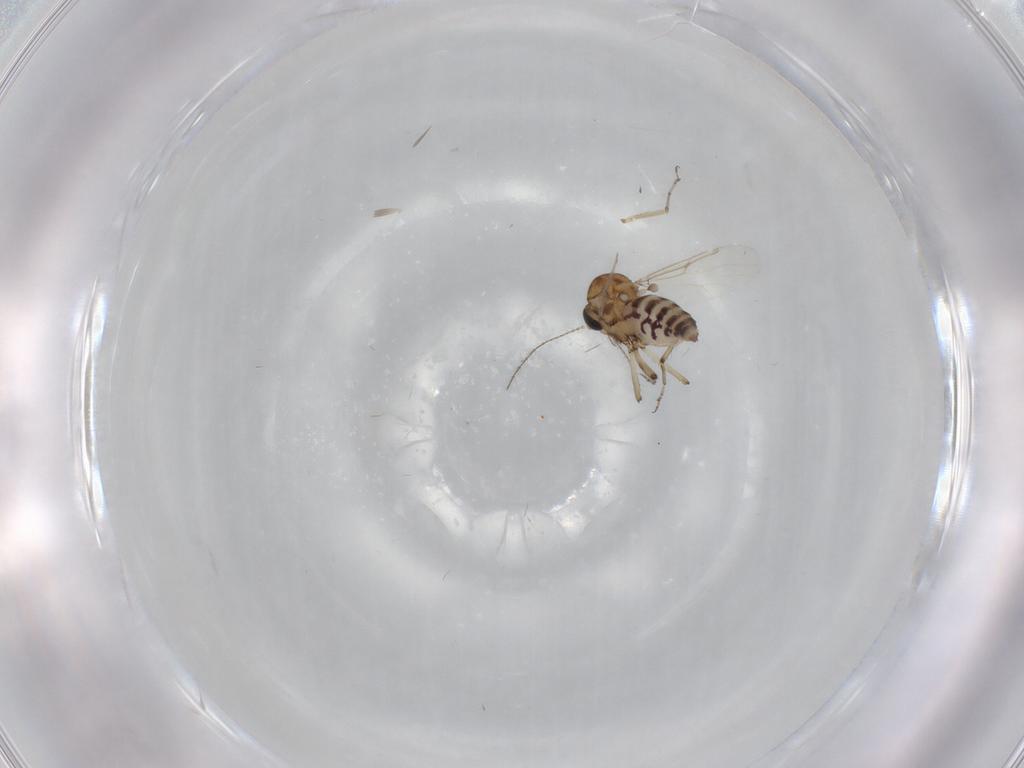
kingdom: Animalia
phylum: Arthropoda
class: Insecta
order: Diptera
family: Ceratopogonidae
